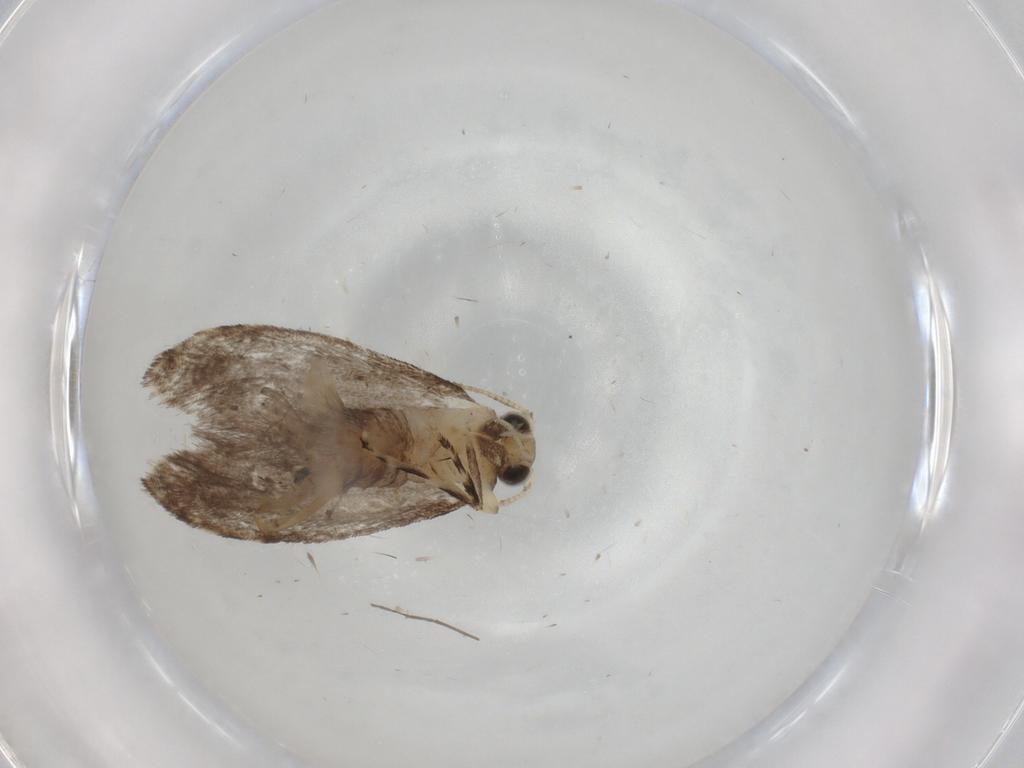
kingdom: Animalia
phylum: Arthropoda
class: Insecta
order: Lepidoptera
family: Tineidae
